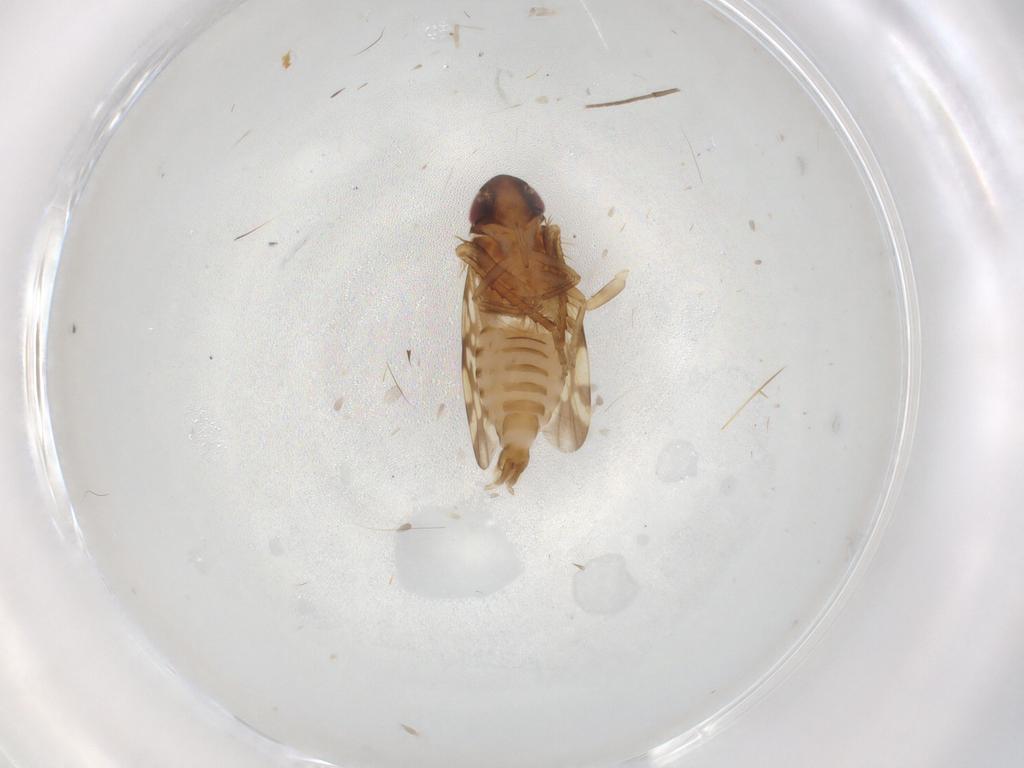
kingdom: Animalia
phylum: Arthropoda
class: Insecta
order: Hemiptera
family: Cicadellidae
